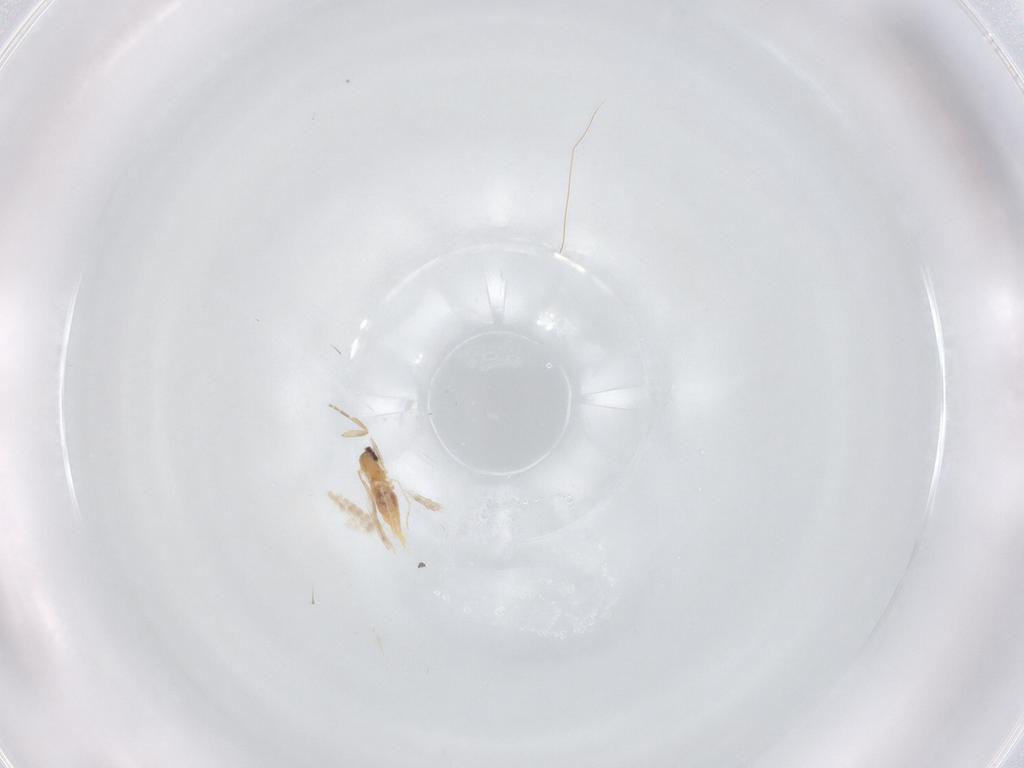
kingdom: Animalia
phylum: Arthropoda
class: Insecta
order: Diptera
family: Cecidomyiidae
